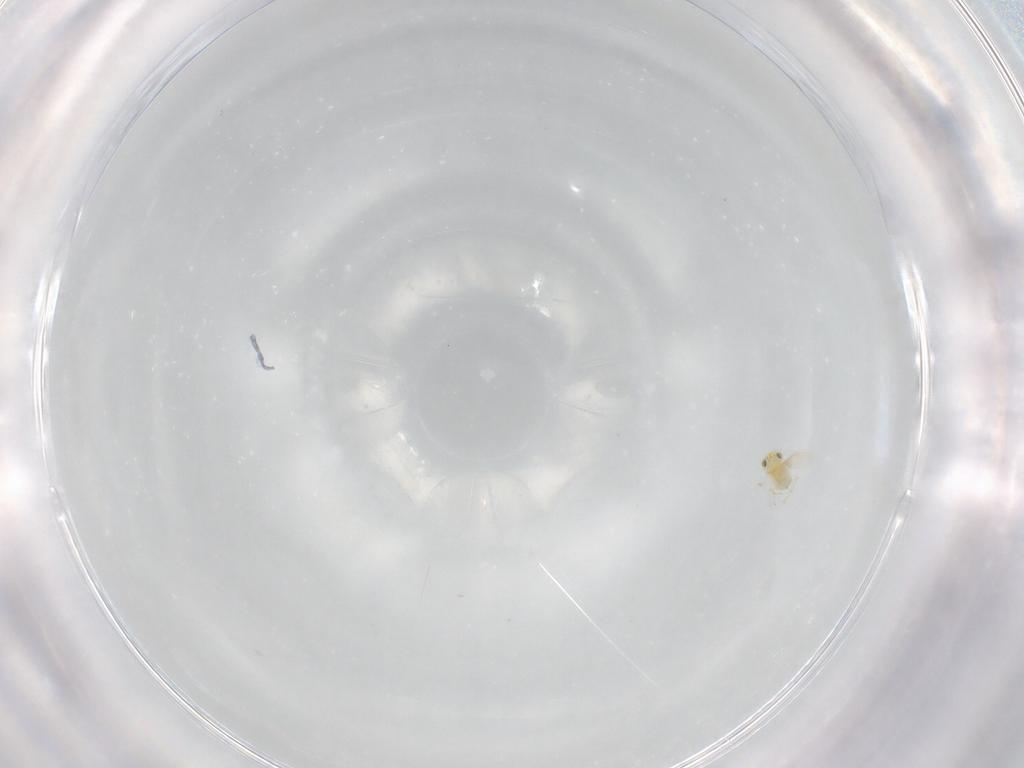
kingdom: Animalia
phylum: Arthropoda
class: Insecta
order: Hymenoptera
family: Aphelinidae
